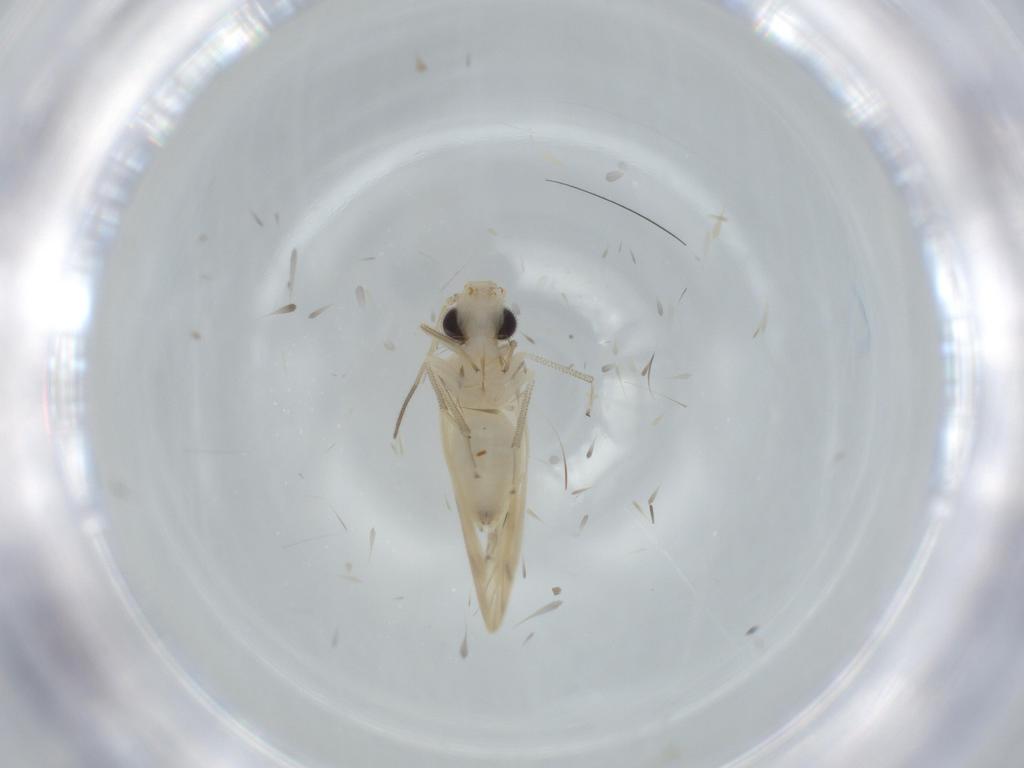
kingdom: Animalia
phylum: Arthropoda
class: Insecta
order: Psocodea
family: Caeciliusidae
